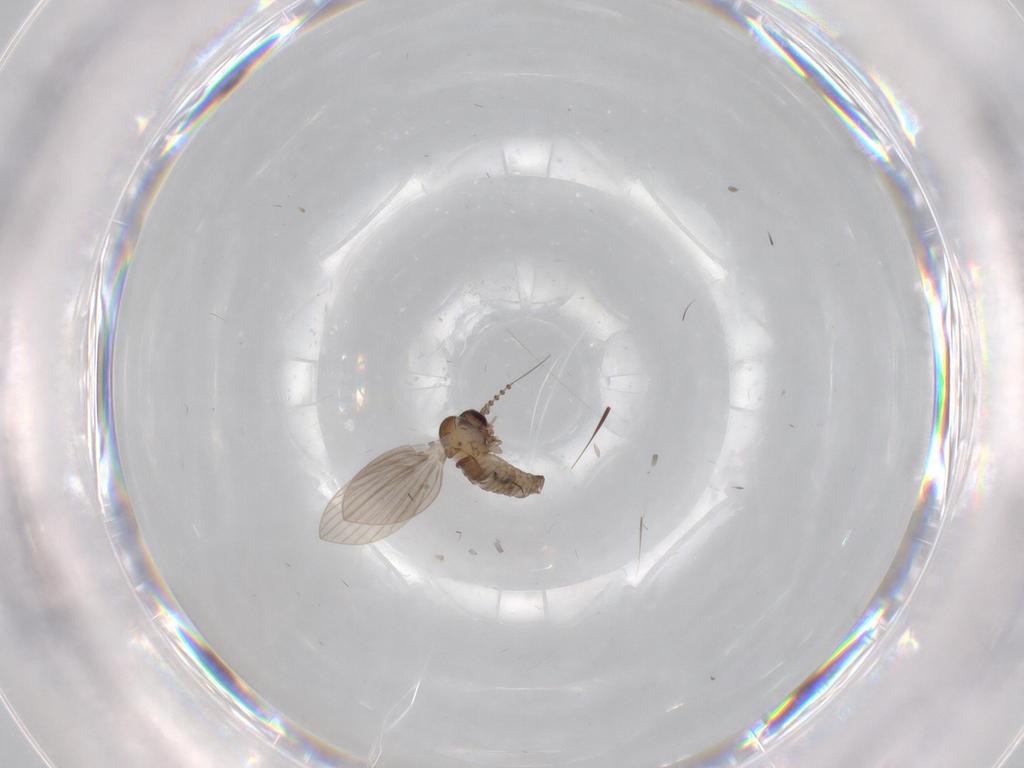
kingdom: Animalia
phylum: Arthropoda
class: Insecta
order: Diptera
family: Psychodidae
